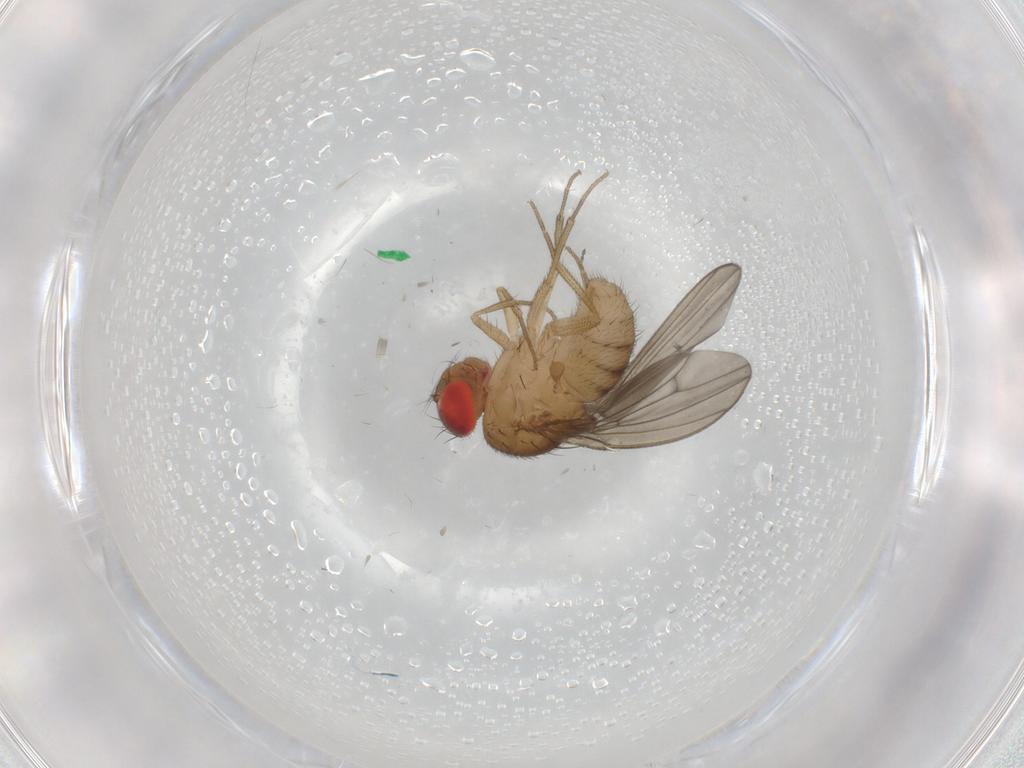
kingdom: Animalia
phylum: Arthropoda
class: Insecta
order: Diptera
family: Drosophilidae
